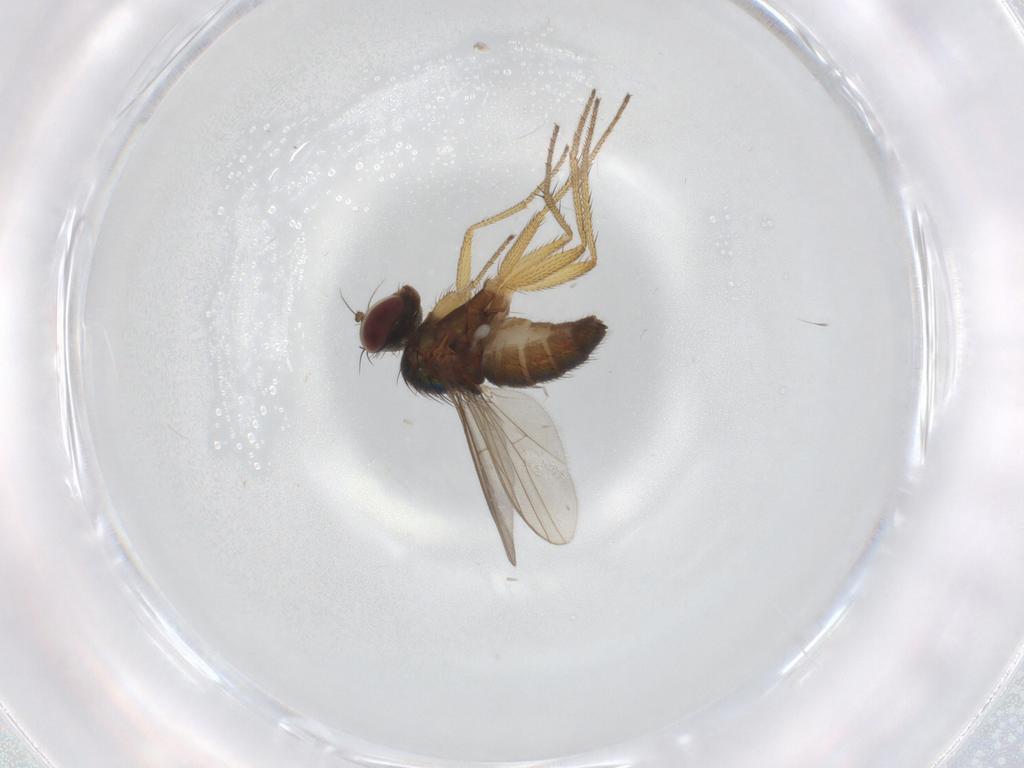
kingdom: Animalia
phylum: Arthropoda
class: Insecta
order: Diptera
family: Dolichopodidae
